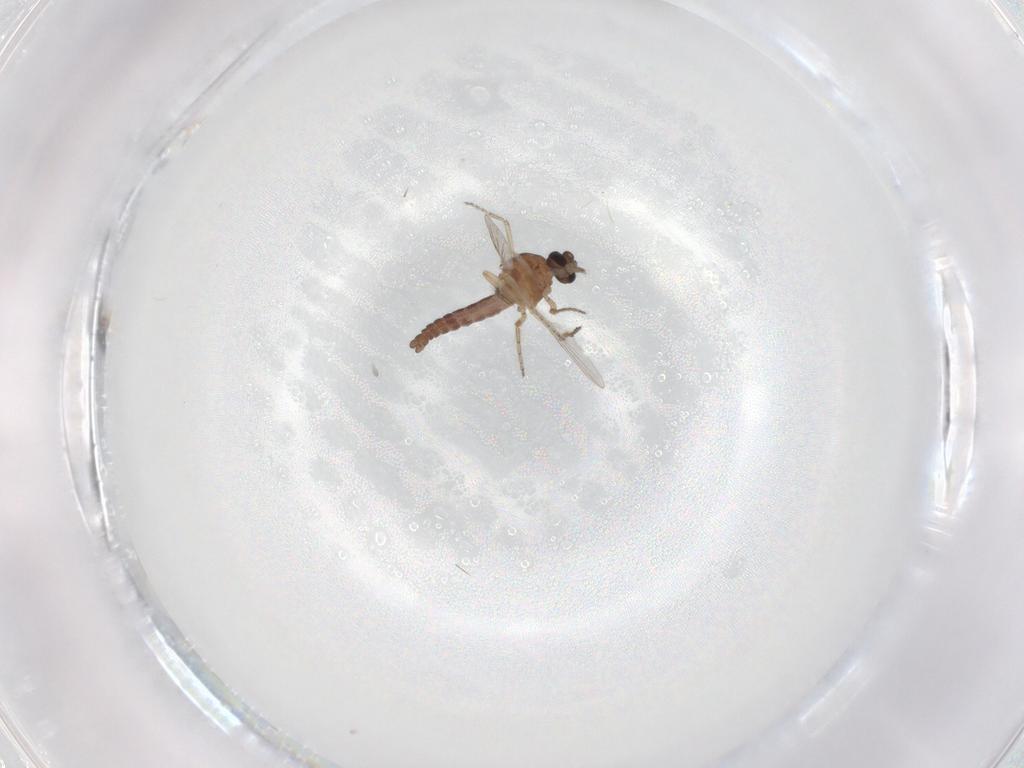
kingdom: Animalia
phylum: Arthropoda
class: Insecta
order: Diptera
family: Ceratopogonidae
